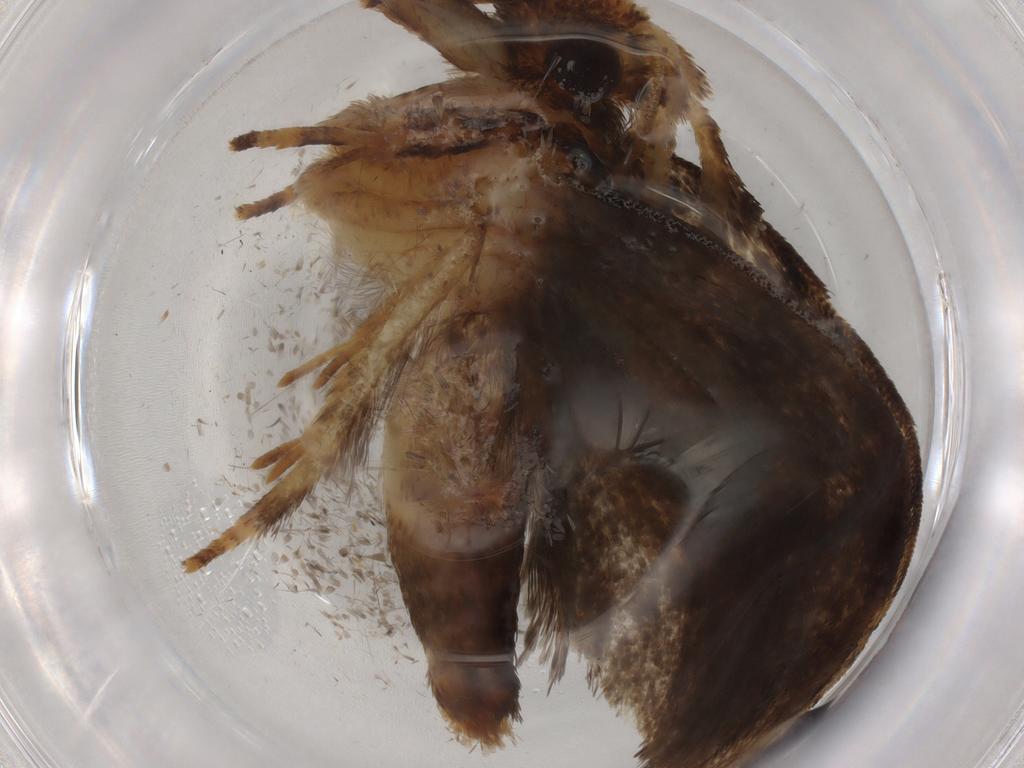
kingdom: Animalia
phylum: Arthropoda
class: Insecta
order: Lepidoptera
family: Tineidae
